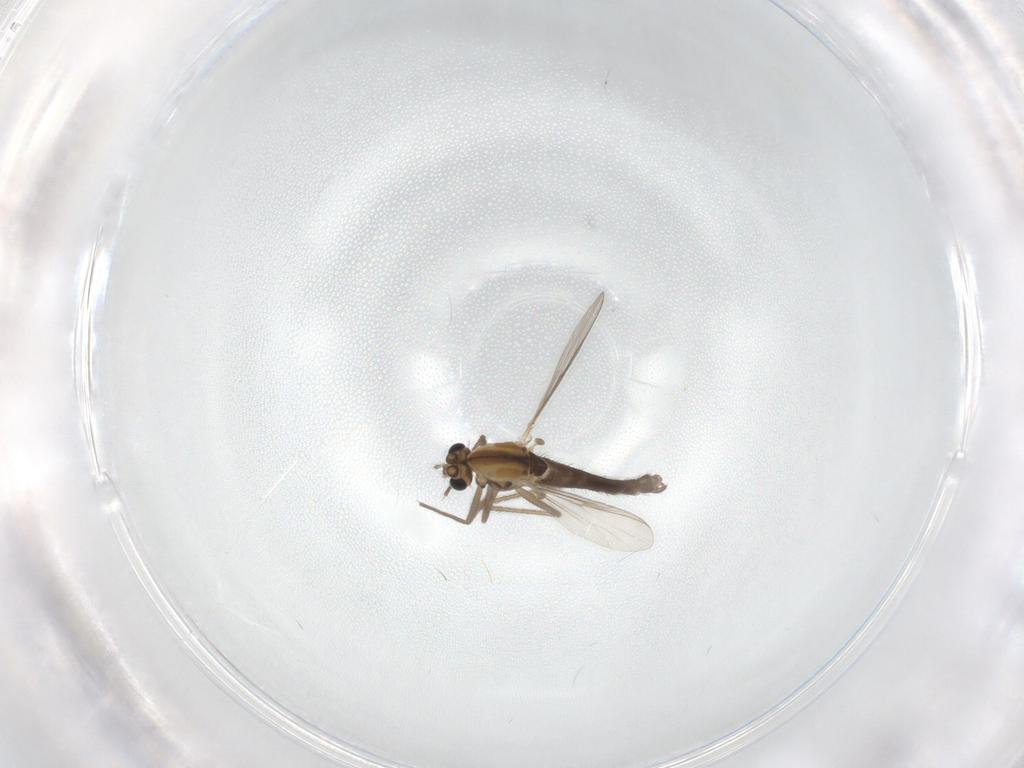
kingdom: Animalia
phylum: Arthropoda
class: Insecta
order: Diptera
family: Chironomidae
